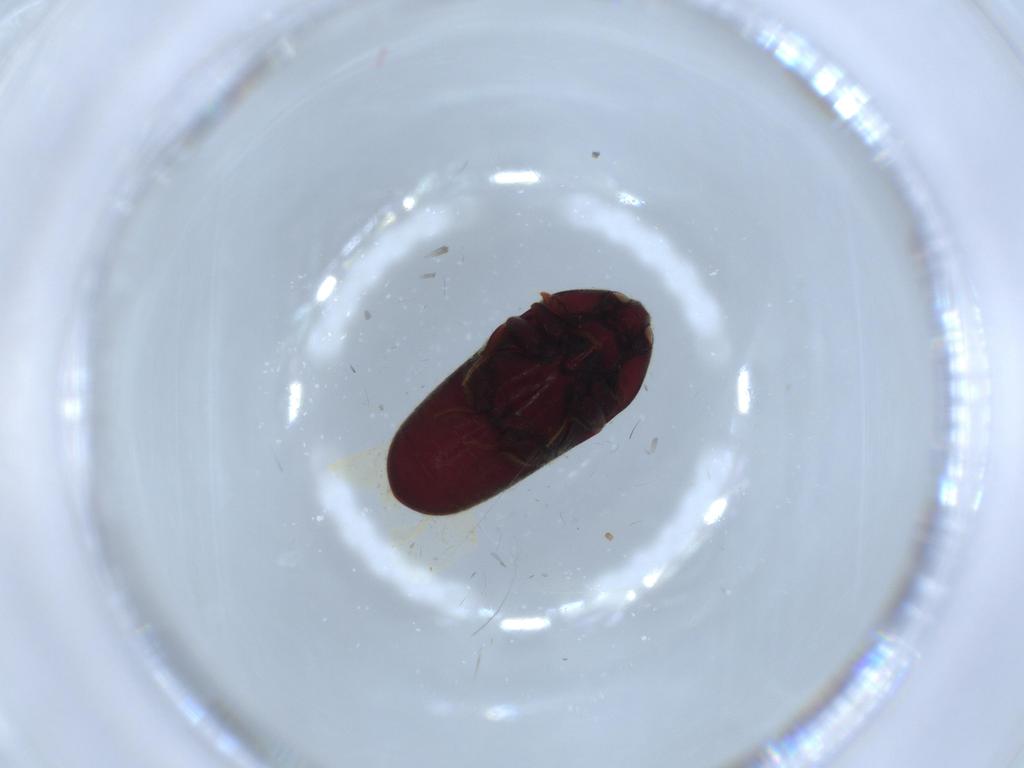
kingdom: Animalia
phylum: Arthropoda
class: Insecta
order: Coleoptera
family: Throscidae
